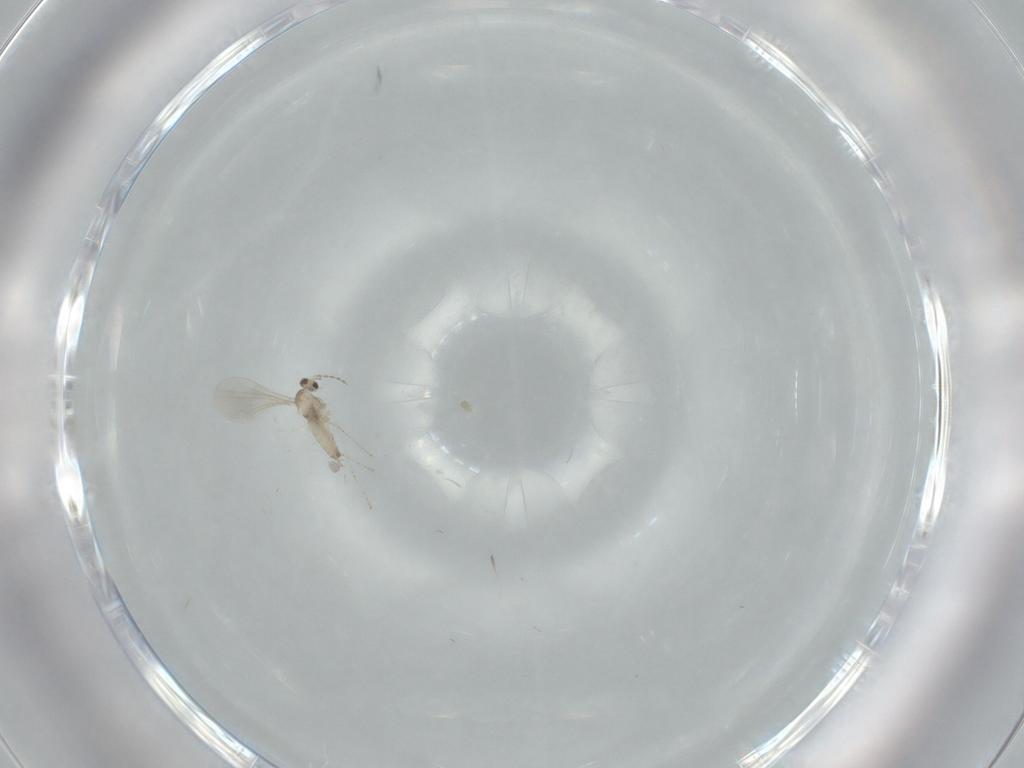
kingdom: Animalia
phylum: Arthropoda
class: Insecta
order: Diptera
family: Cecidomyiidae
